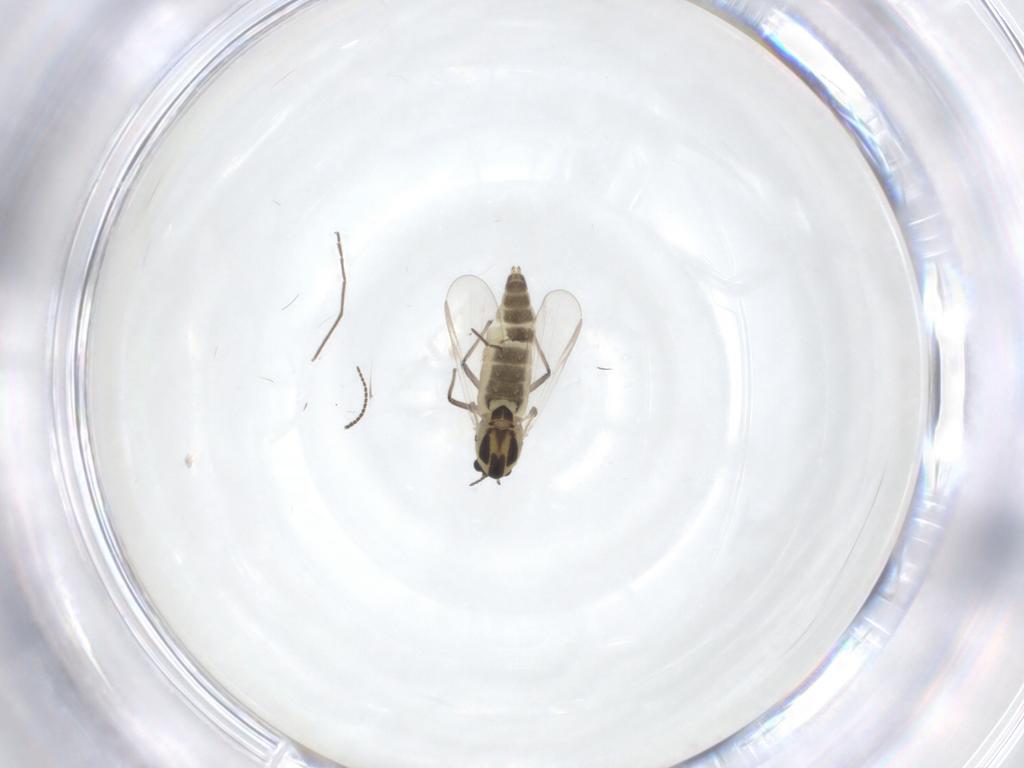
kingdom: Animalia
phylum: Arthropoda
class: Insecta
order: Diptera
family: Chironomidae
